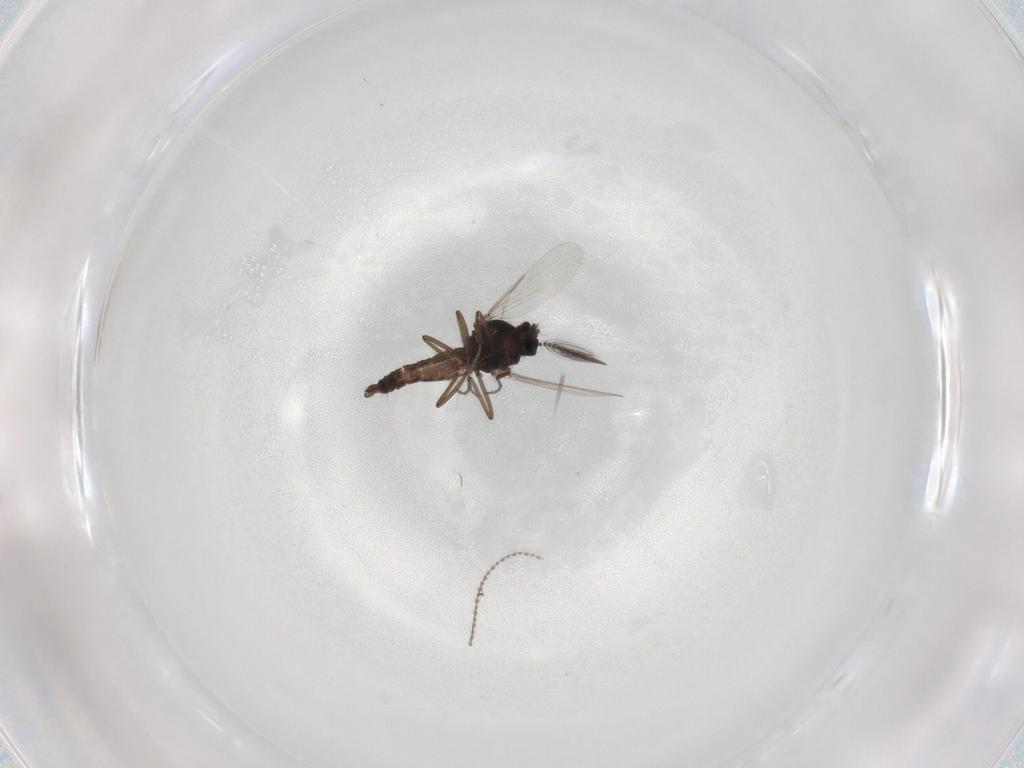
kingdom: Animalia
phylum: Arthropoda
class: Insecta
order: Diptera
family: Ceratopogonidae
